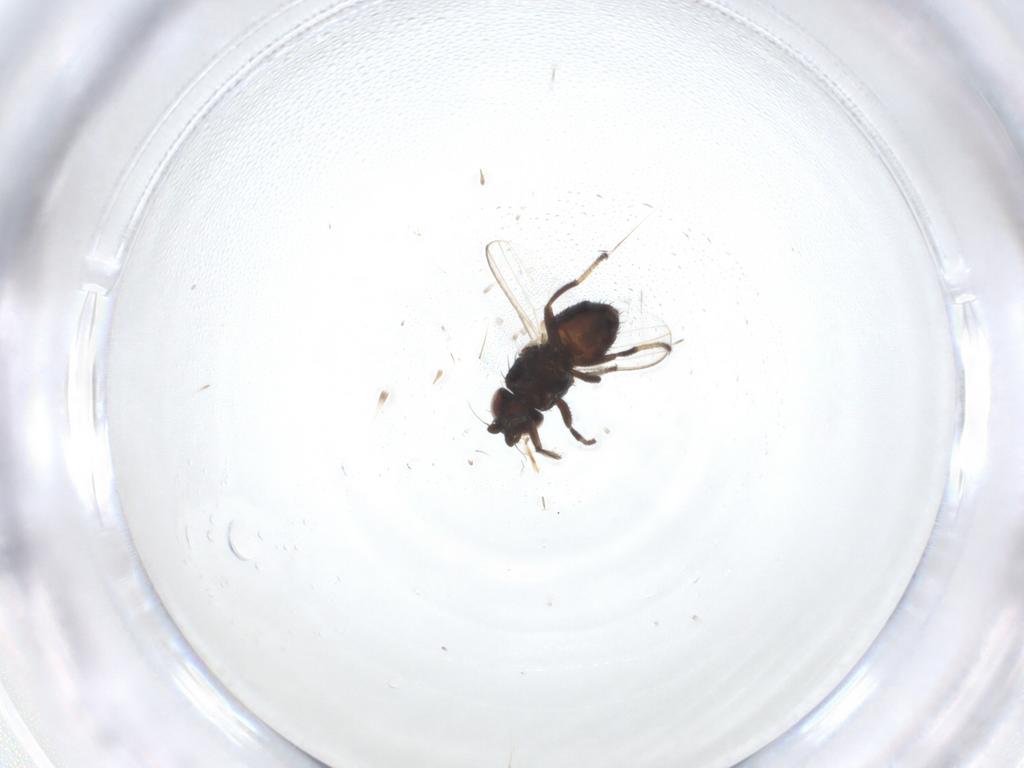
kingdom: Animalia
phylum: Arthropoda
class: Insecta
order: Diptera
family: Milichiidae
